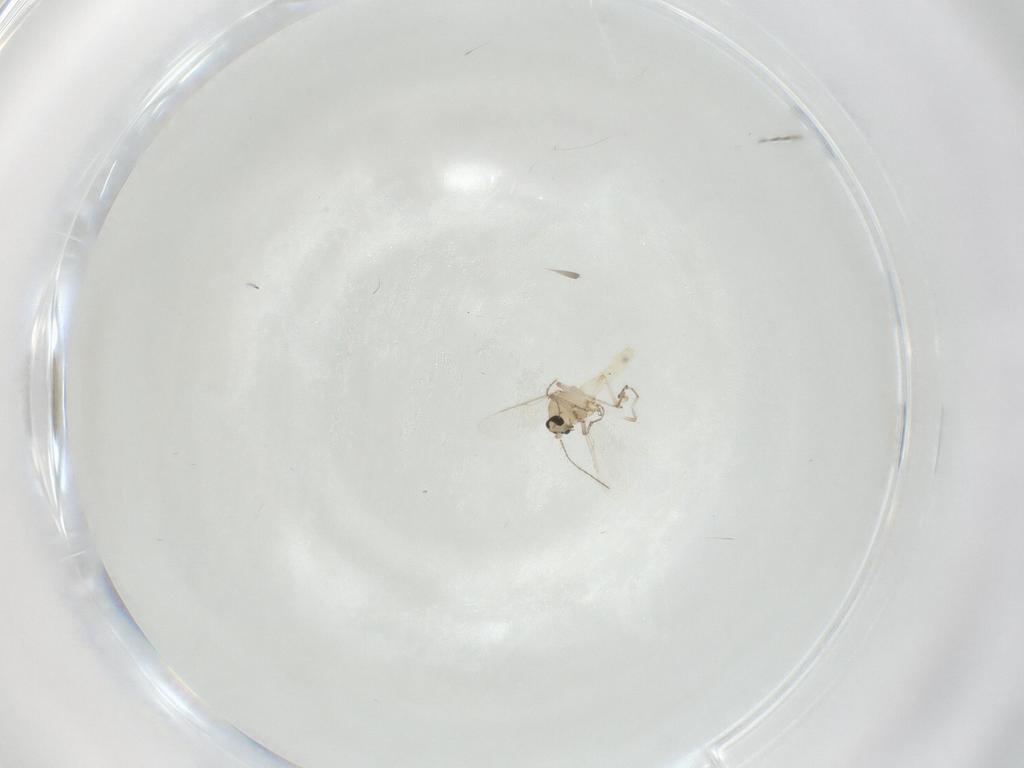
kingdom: Animalia
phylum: Arthropoda
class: Insecta
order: Diptera
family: Ceratopogonidae
